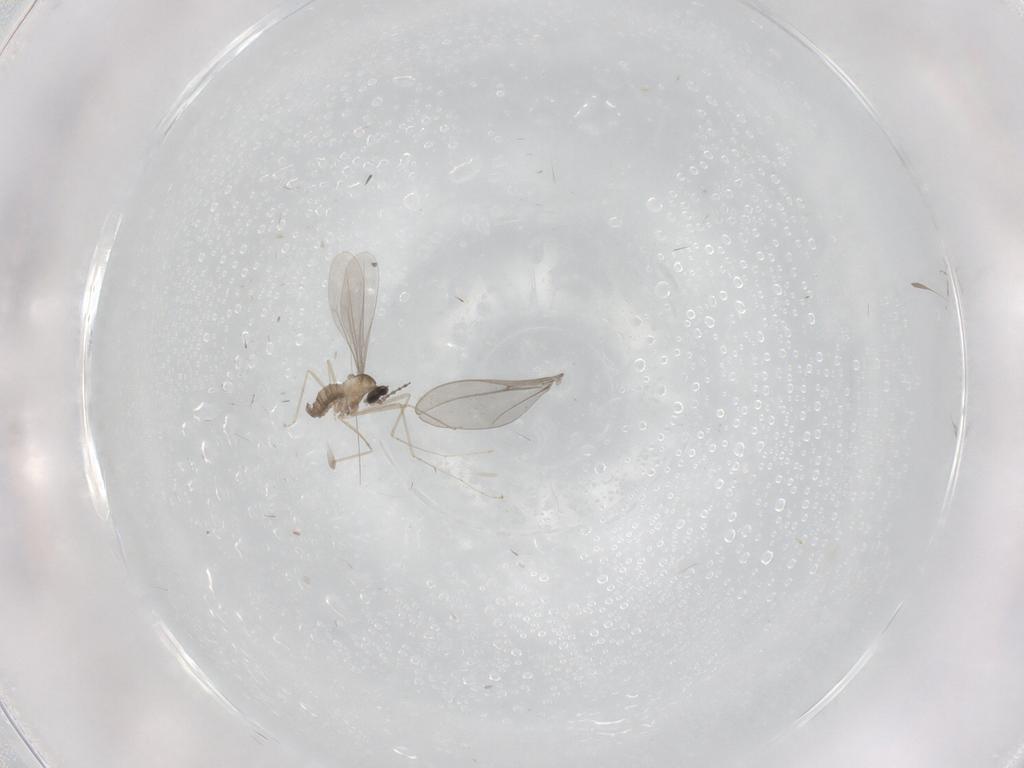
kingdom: Animalia
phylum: Arthropoda
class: Insecta
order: Diptera
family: Cecidomyiidae
